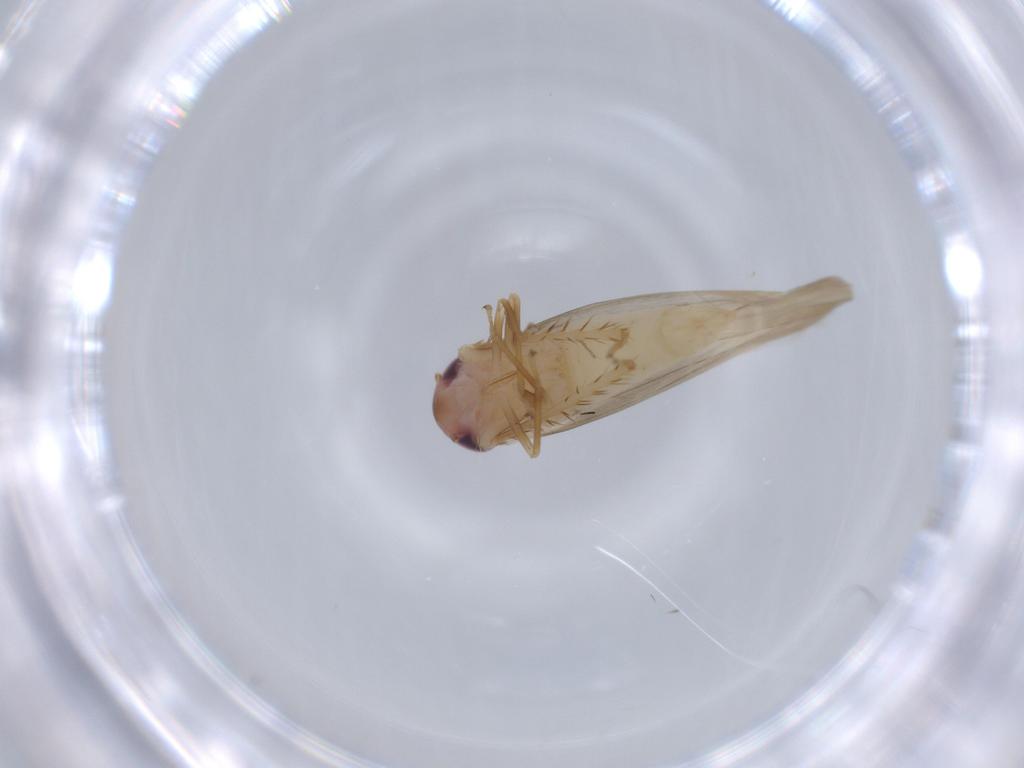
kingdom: Animalia
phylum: Arthropoda
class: Insecta
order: Hemiptera
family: Cicadellidae
